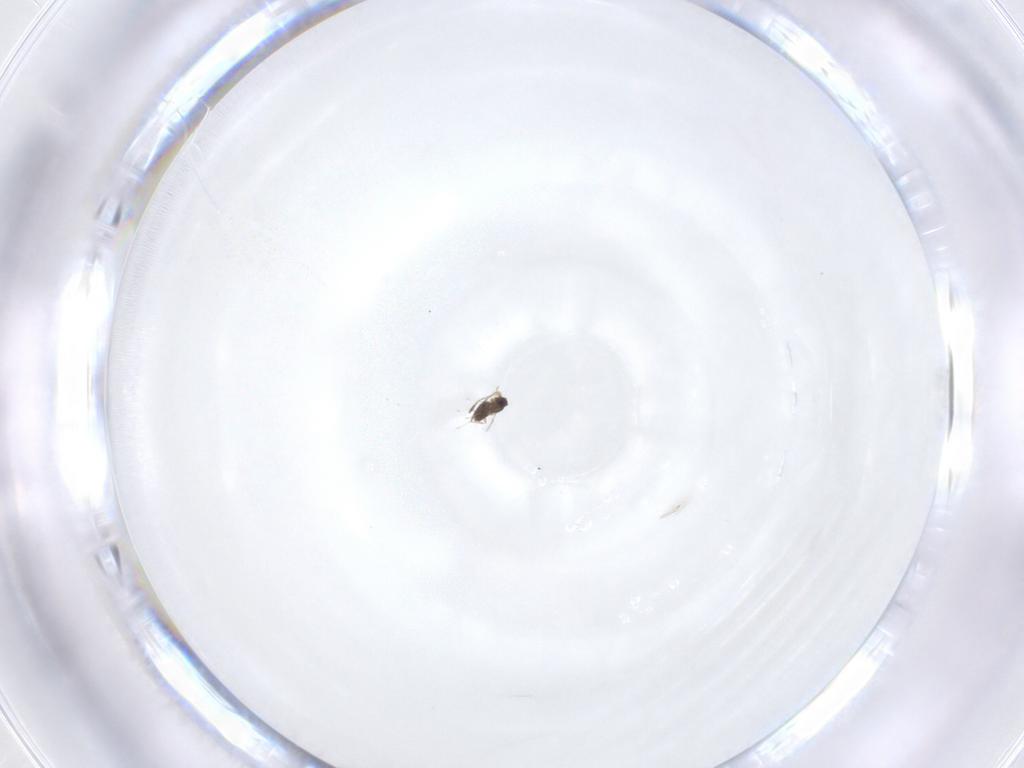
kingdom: Animalia
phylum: Arthropoda
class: Insecta
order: Hymenoptera
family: Mymaridae
